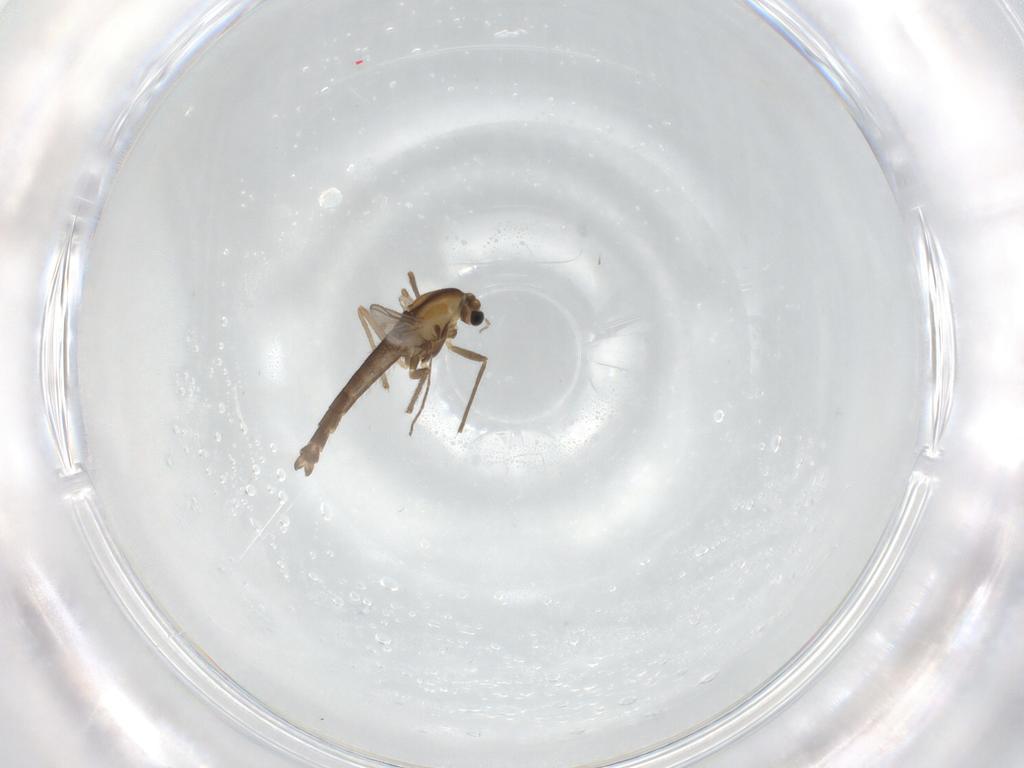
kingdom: Animalia
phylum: Arthropoda
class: Insecta
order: Diptera
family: Chironomidae
